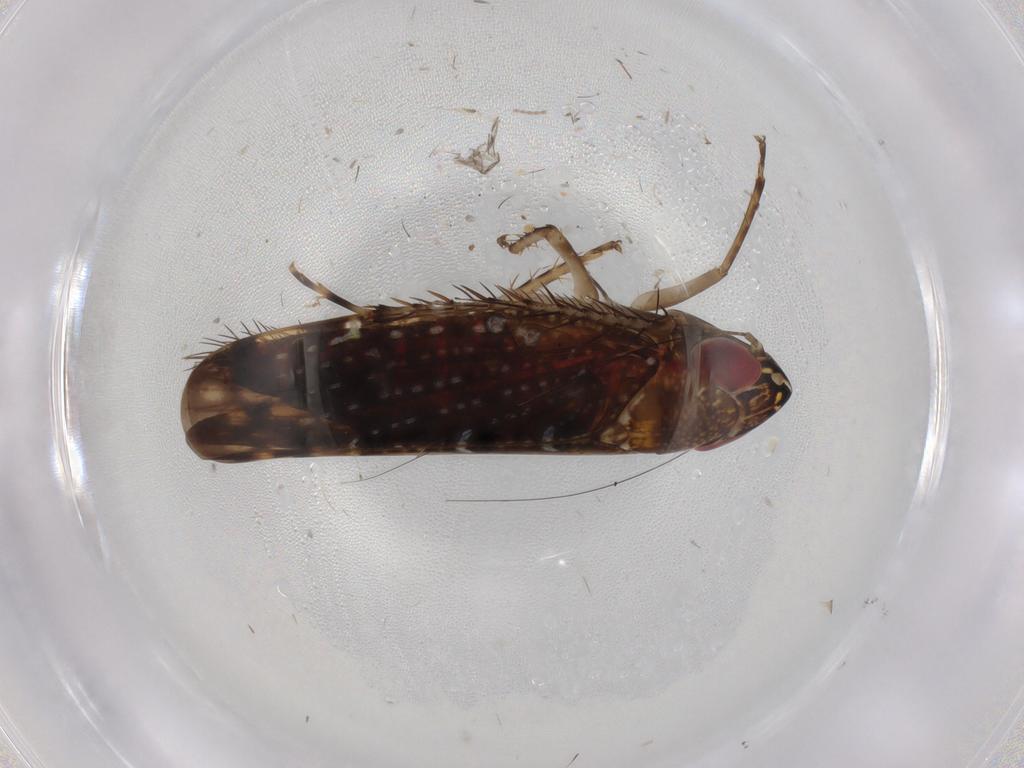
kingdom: Animalia
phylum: Arthropoda
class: Insecta
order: Hemiptera
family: Cicadellidae
